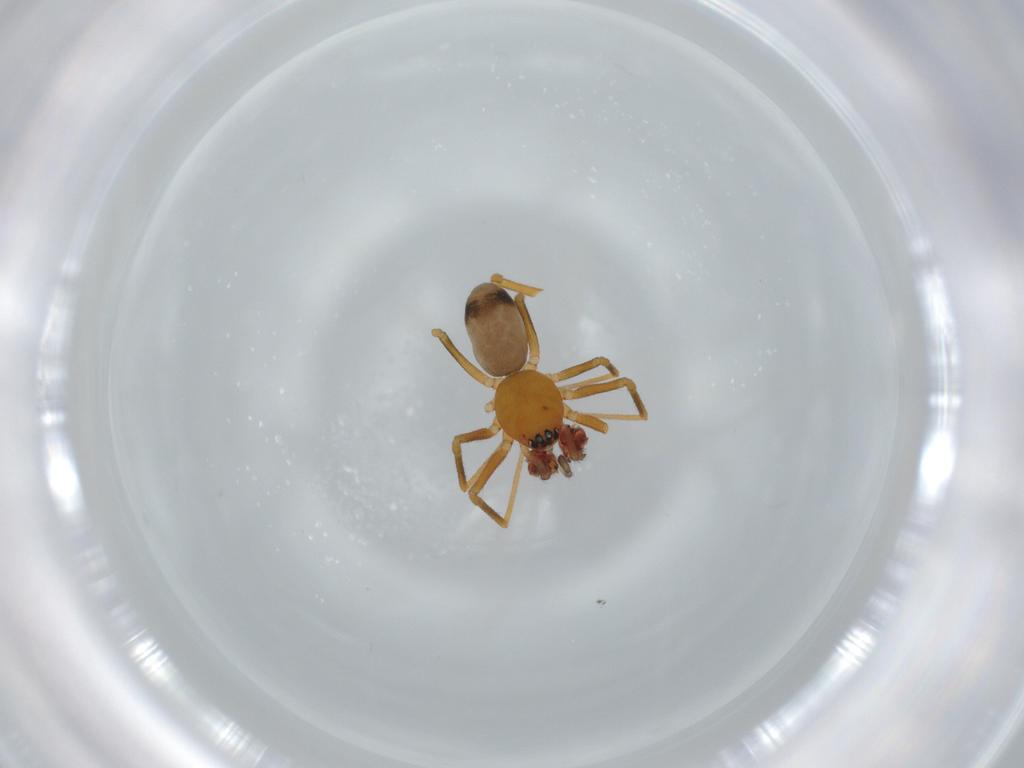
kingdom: Animalia
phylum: Arthropoda
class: Arachnida
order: Araneae
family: Linyphiidae
